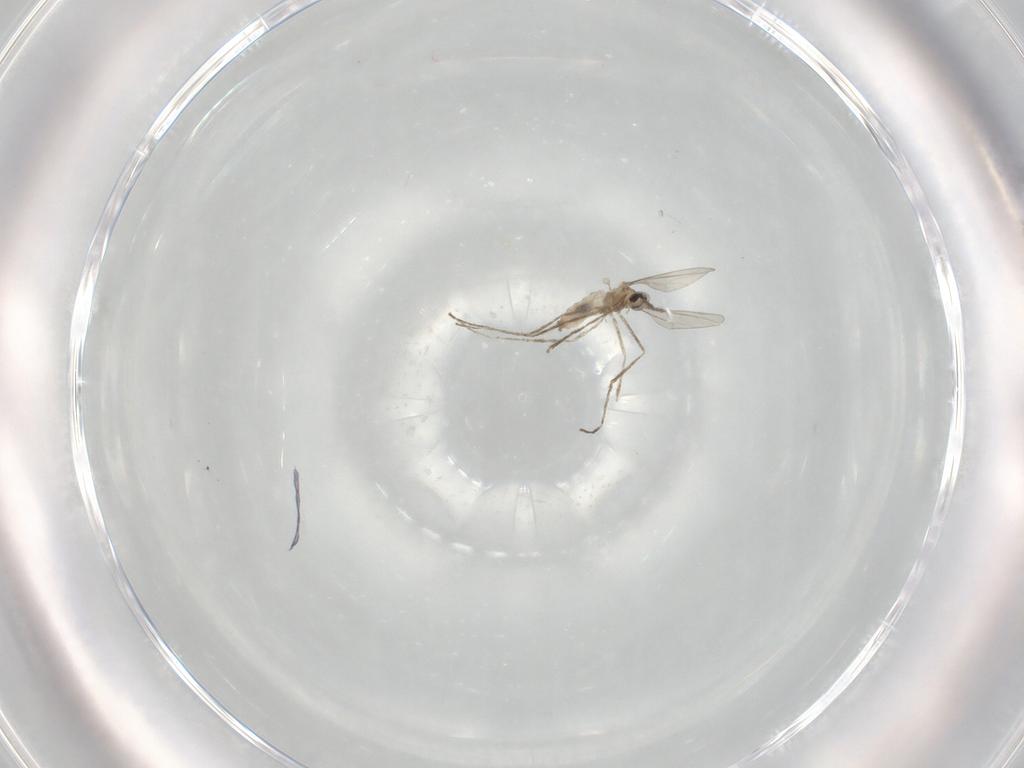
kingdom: Animalia
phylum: Arthropoda
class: Insecta
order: Diptera
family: Cecidomyiidae
